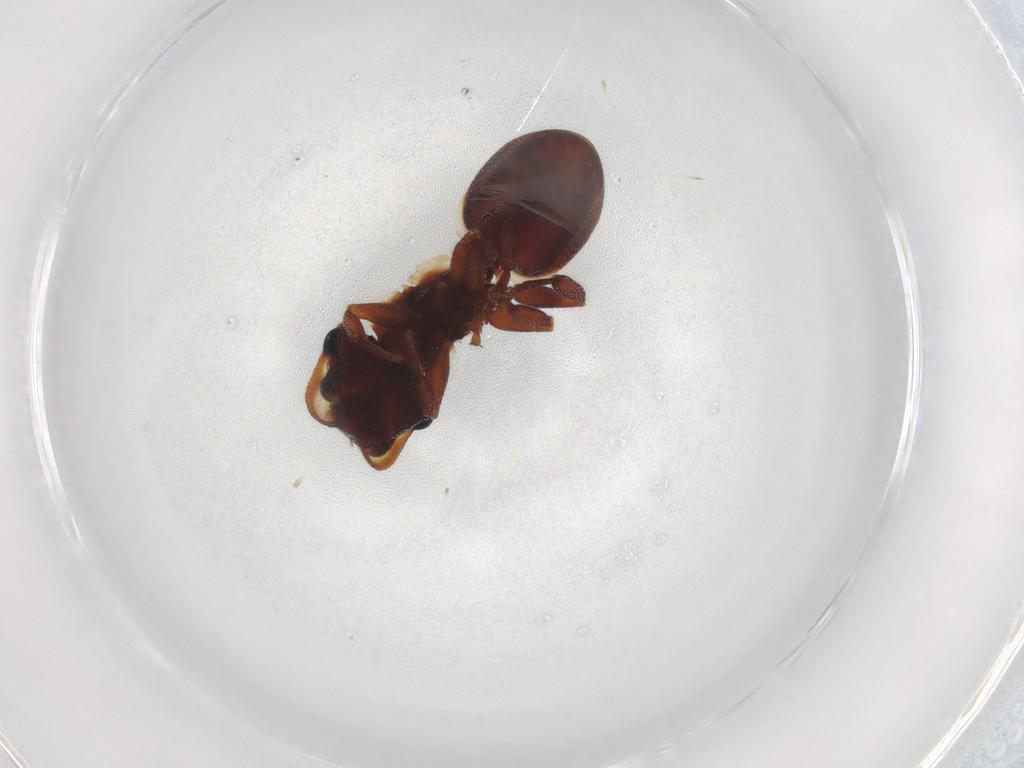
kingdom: Animalia
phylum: Arthropoda
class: Insecta
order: Hymenoptera
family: Formicidae
